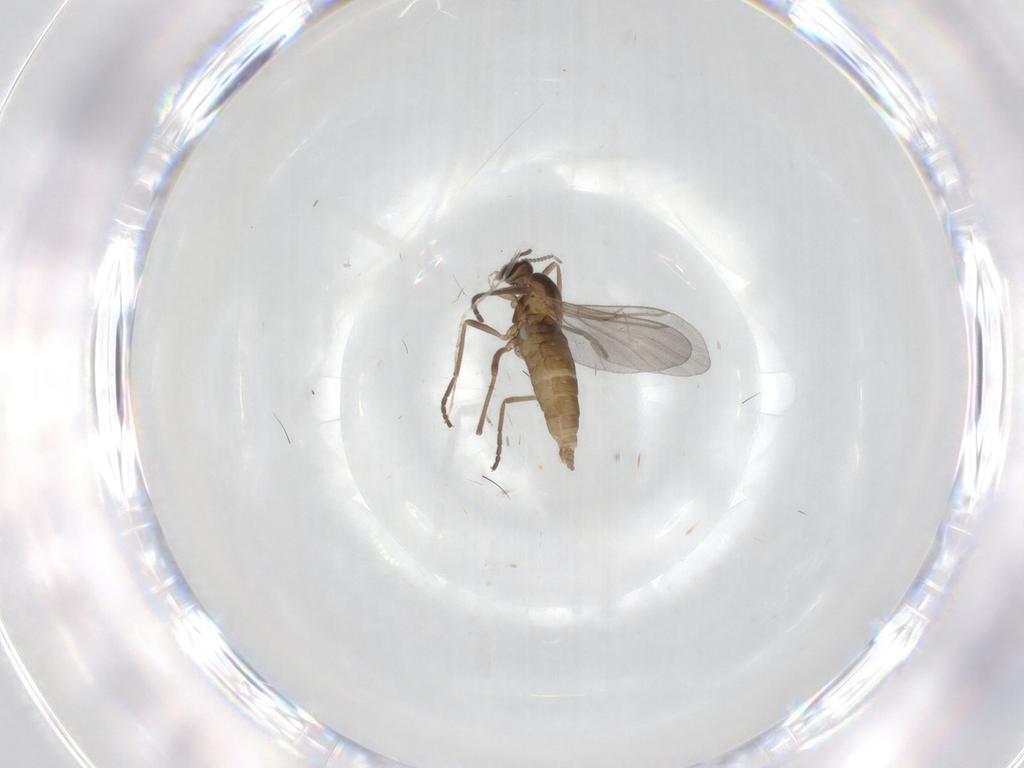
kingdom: Animalia
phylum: Arthropoda
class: Insecta
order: Diptera
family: Cecidomyiidae
